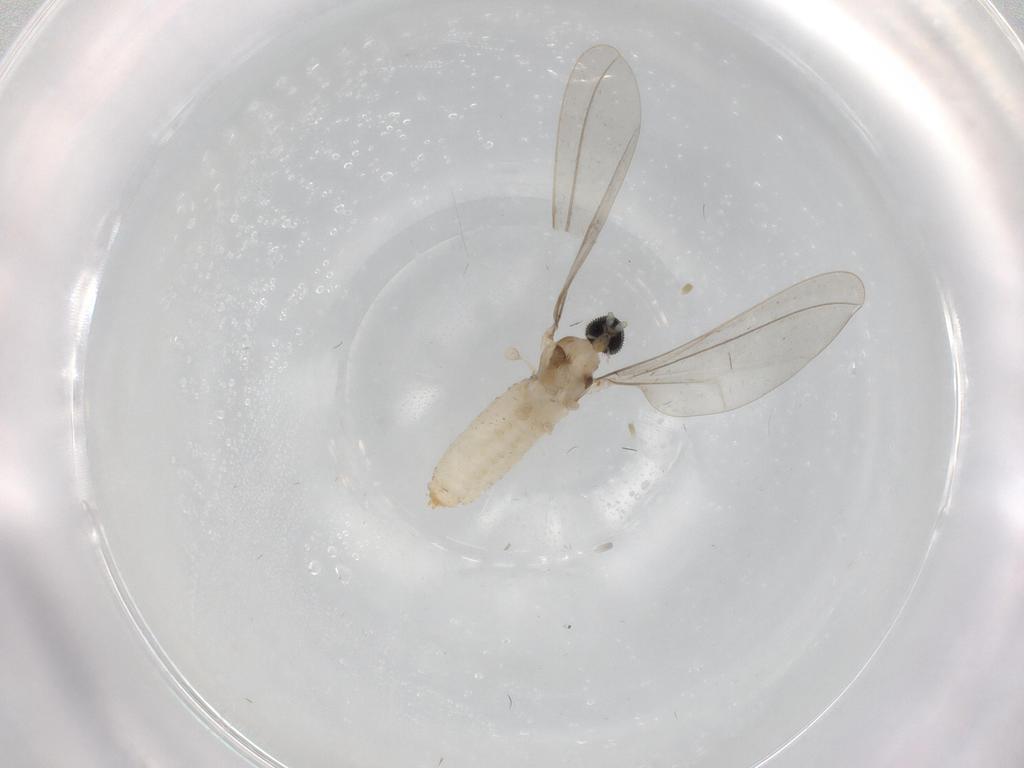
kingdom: Animalia
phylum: Arthropoda
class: Insecta
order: Diptera
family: Cecidomyiidae
